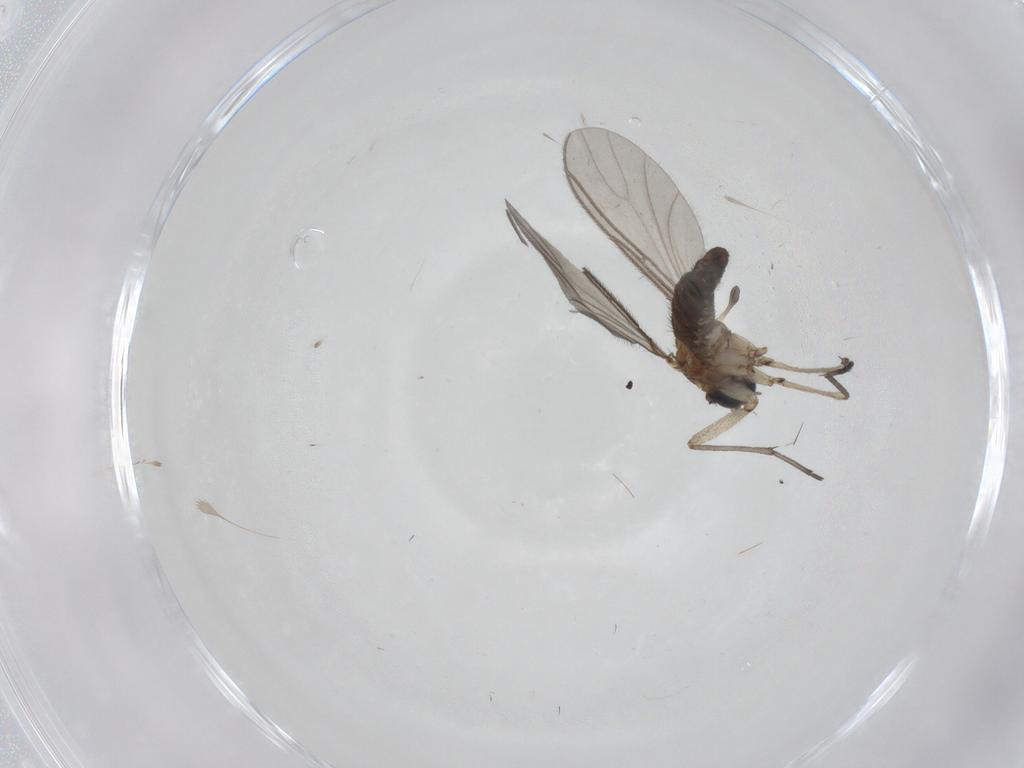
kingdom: Animalia
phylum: Arthropoda
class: Insecta
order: Diptera
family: Sciaridae
